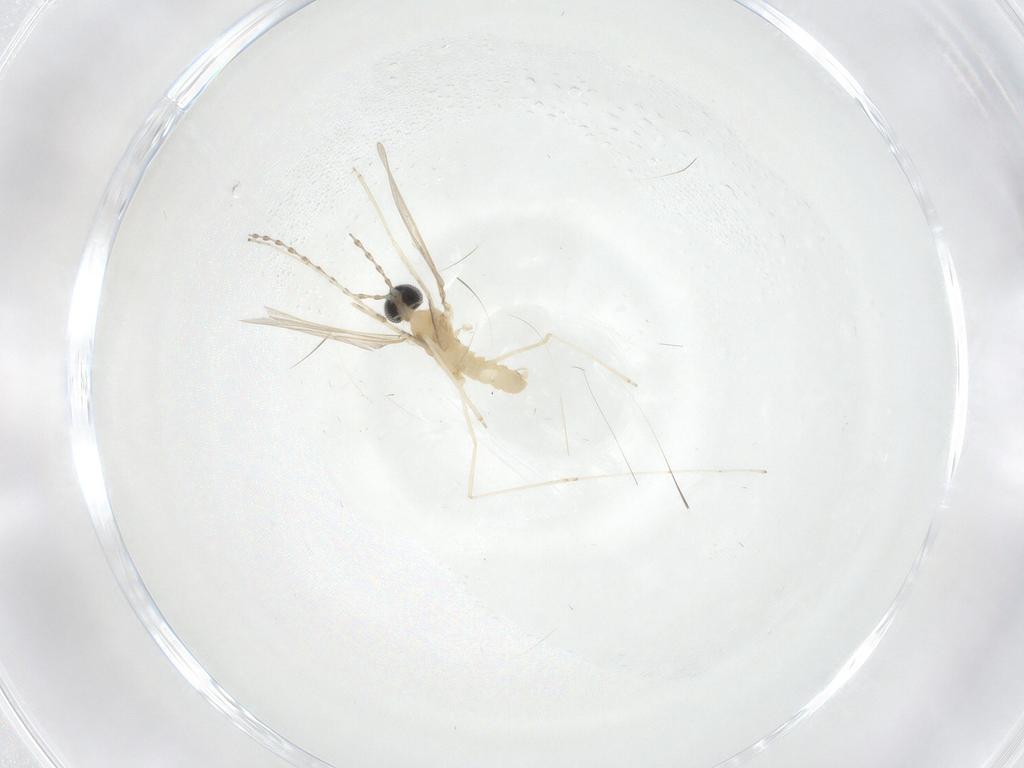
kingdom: Animalia
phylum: Arthropoda
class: Insecta
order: Diptera
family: Cecidomyiidae
